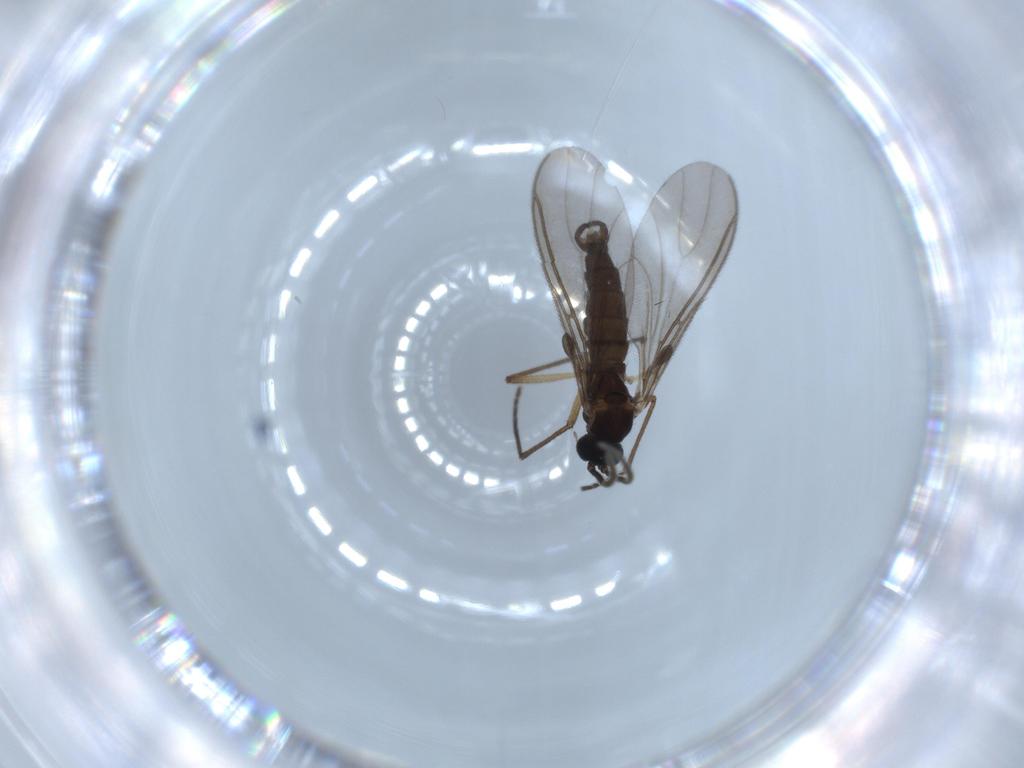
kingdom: Animalia
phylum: Arthropoda
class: Insecta
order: Diptera
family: Sciaridae
